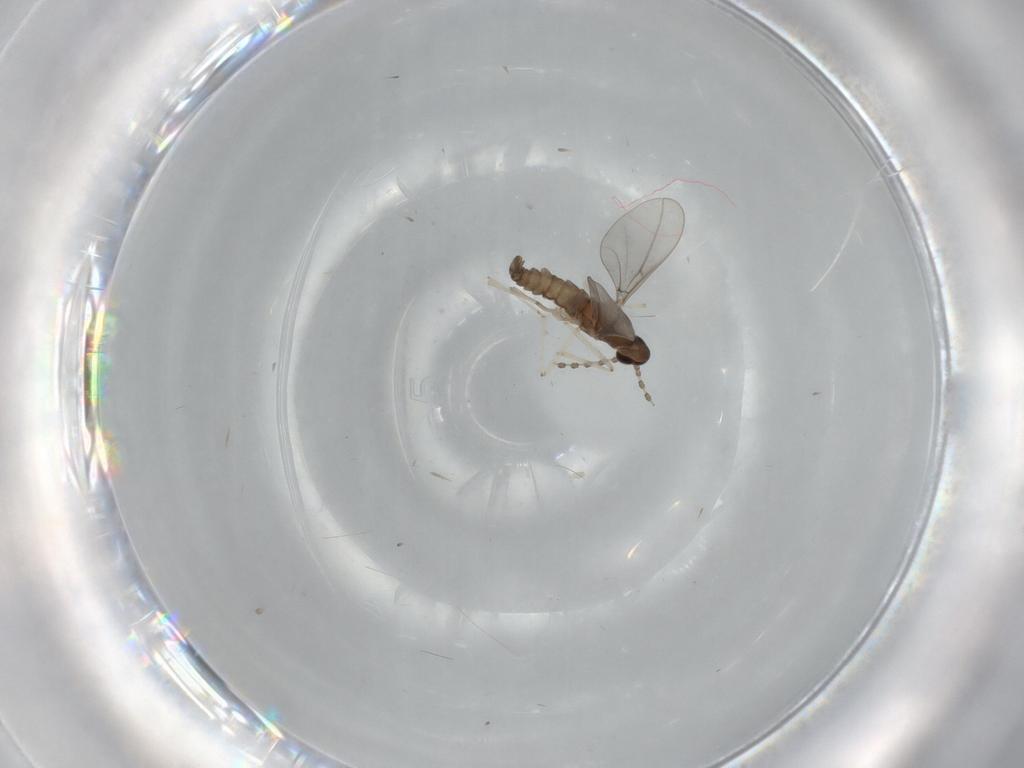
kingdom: Animalia
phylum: Arthropoda
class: Insecta
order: Diptera
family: Cecidomyiidae
